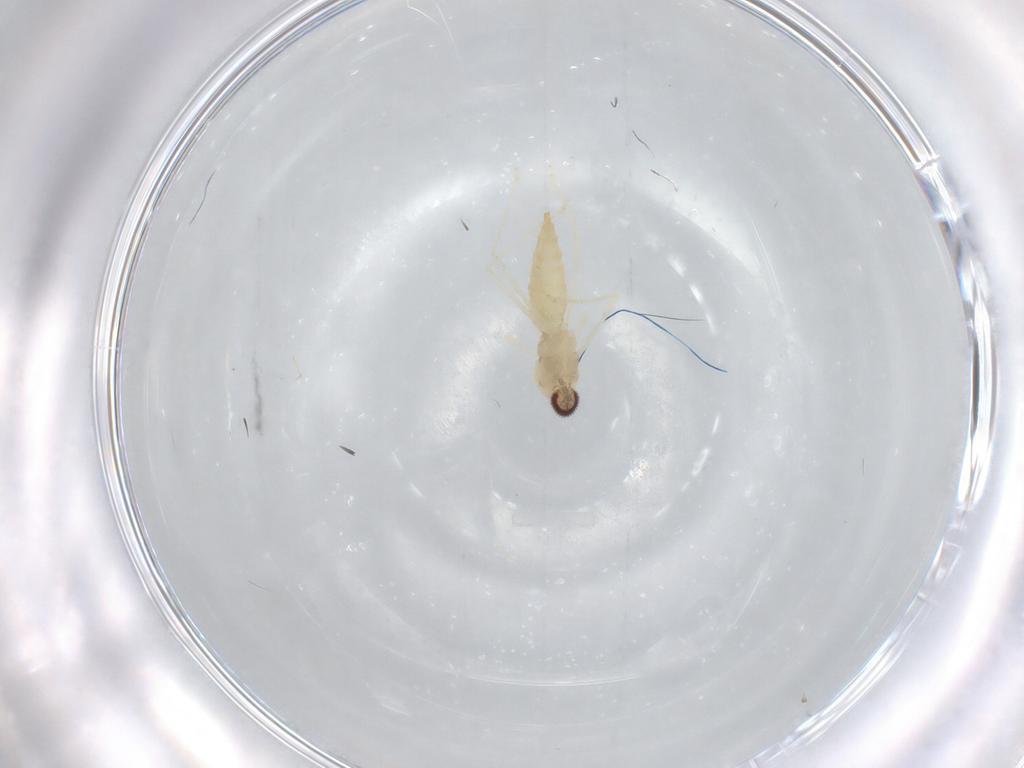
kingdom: Animalia
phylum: Arthropoda
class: Insecta
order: Diptera
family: Cecidomyiidae
